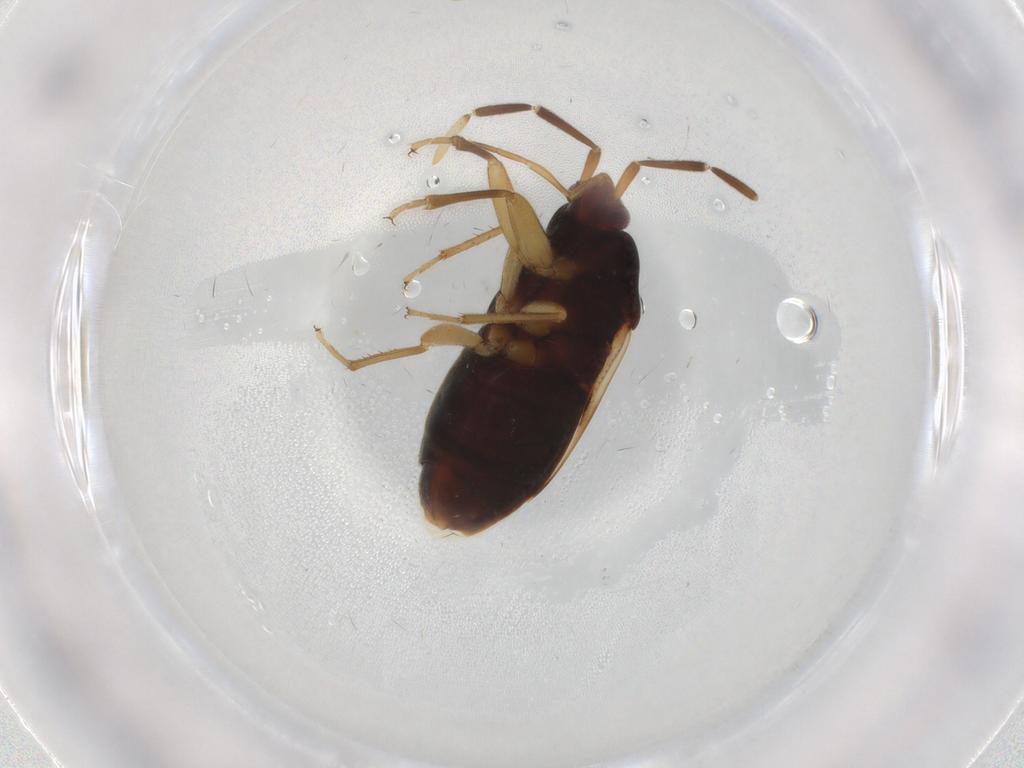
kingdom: Animalia
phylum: Arthropoda
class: Insecta
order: Hemiptera
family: Rhyparochromidae
